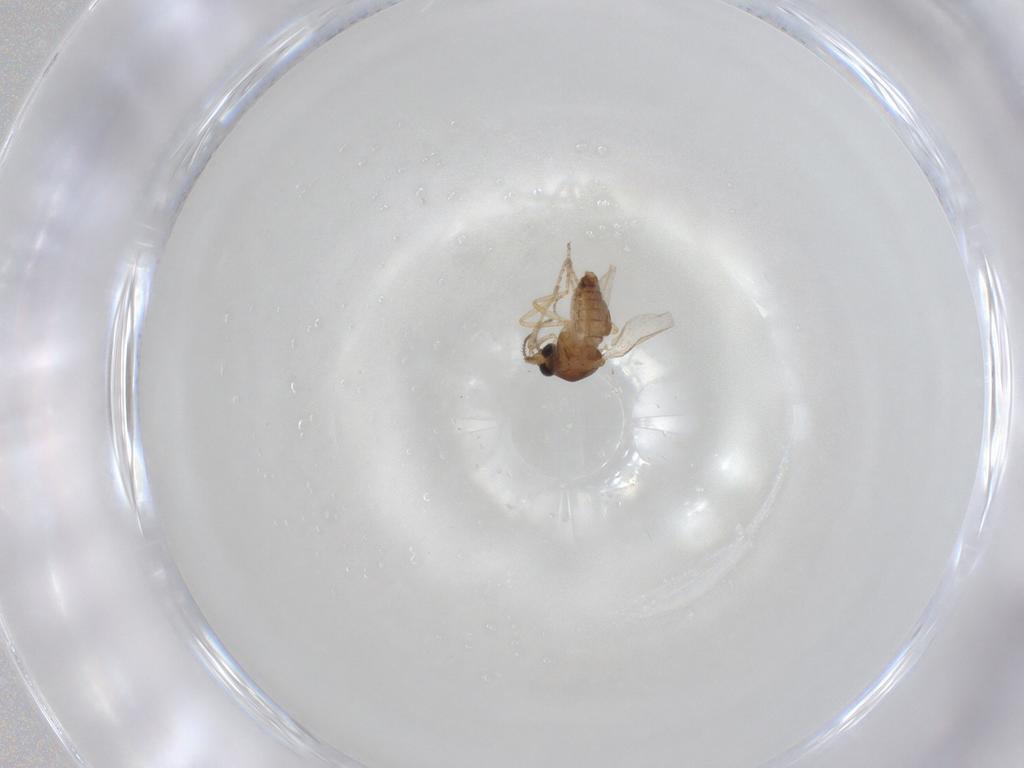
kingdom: Animalia
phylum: Arthropoda
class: Insecta
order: Diptera
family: Ceratopogonidae
